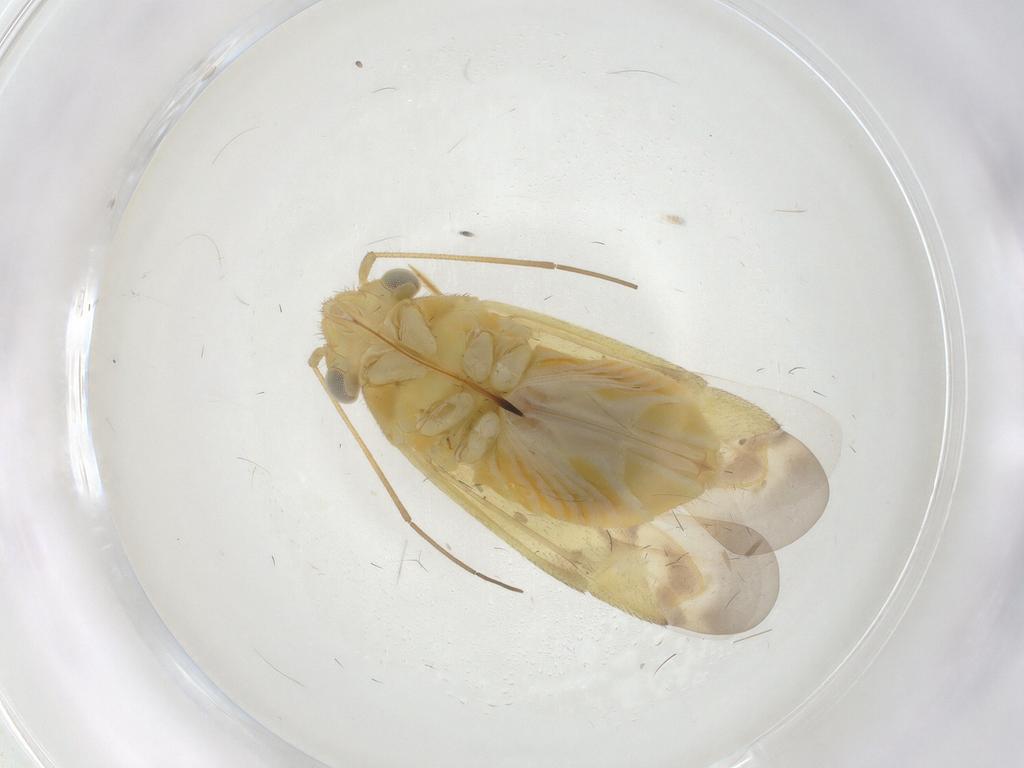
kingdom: Animalia
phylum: Arthropoda
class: Insecta
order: Hemiptera
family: Miridae
